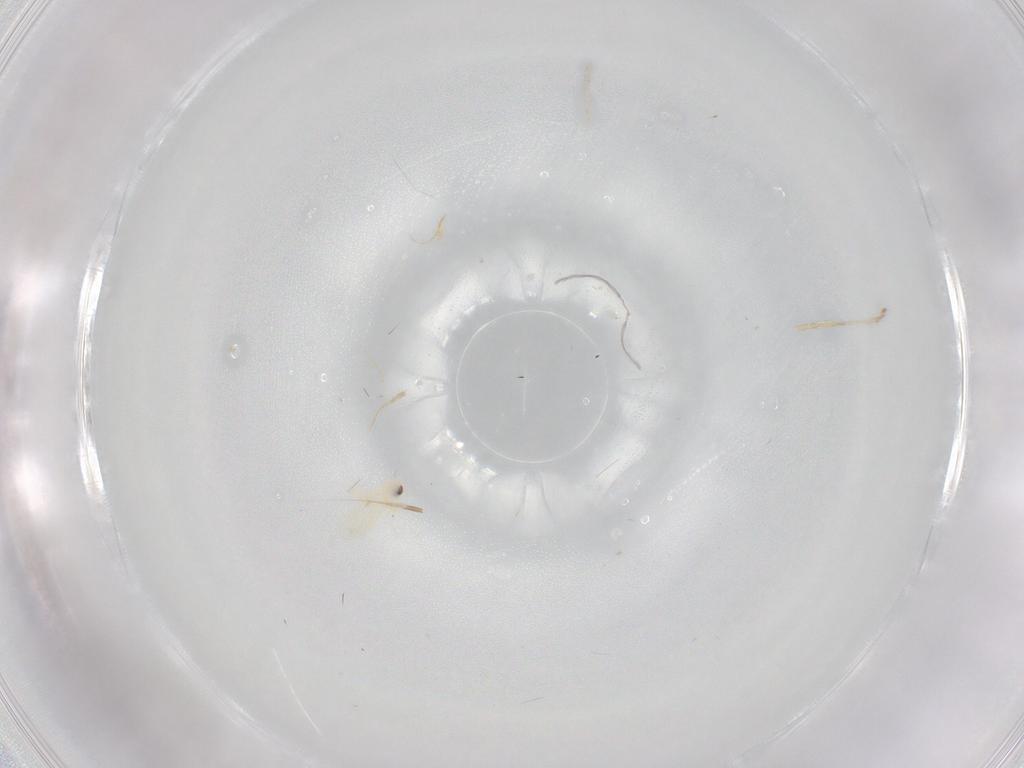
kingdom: Animalia
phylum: Arthropoda
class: Insecta
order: Hemiptera
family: Aleyrodidae
